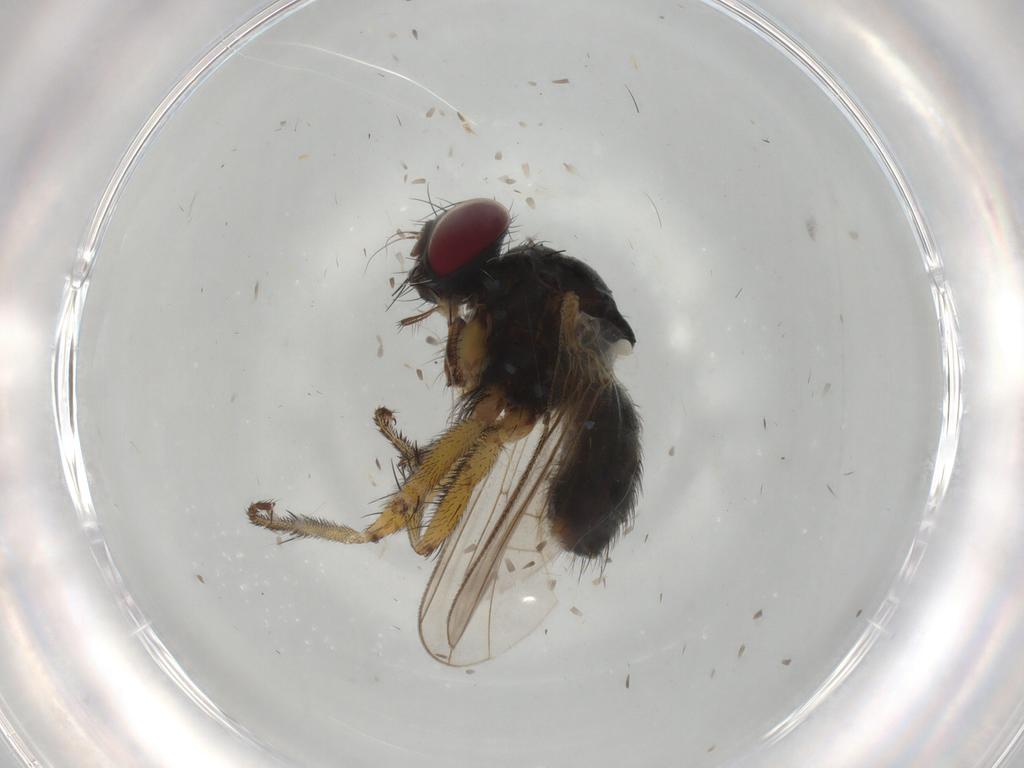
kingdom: Animalia
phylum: Arthropoda
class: Insecta
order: Diptera
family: Muscidae
